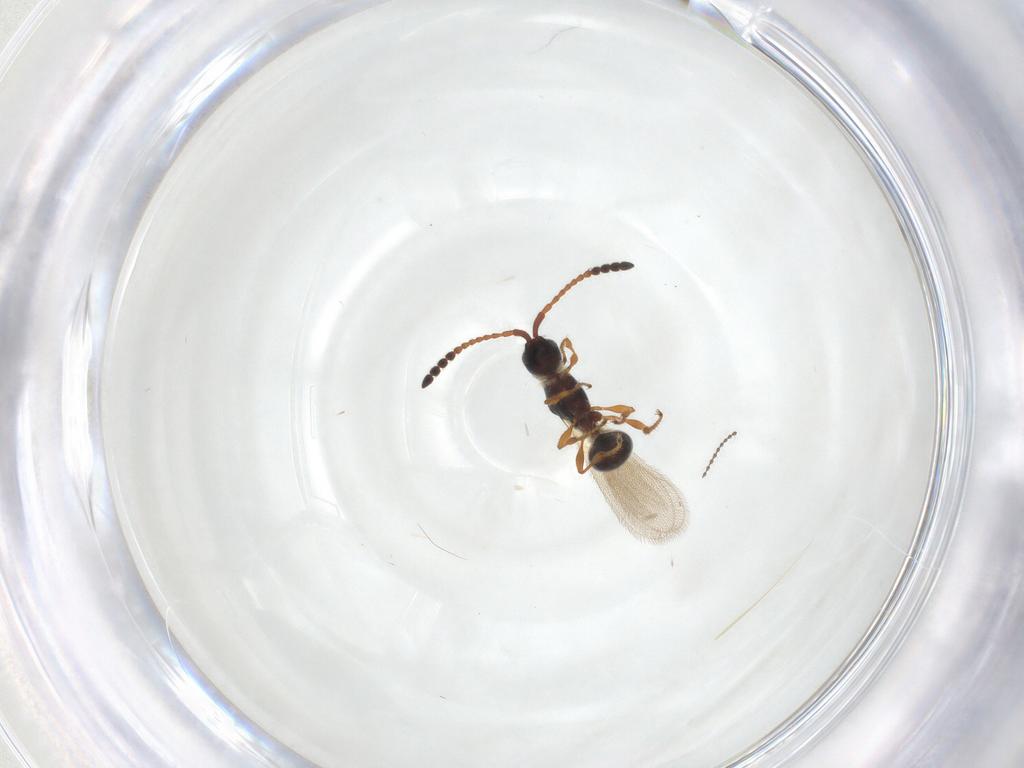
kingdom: Animalia
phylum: Arthropoda
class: Insecta
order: Hymenoptera
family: Diapriidae
